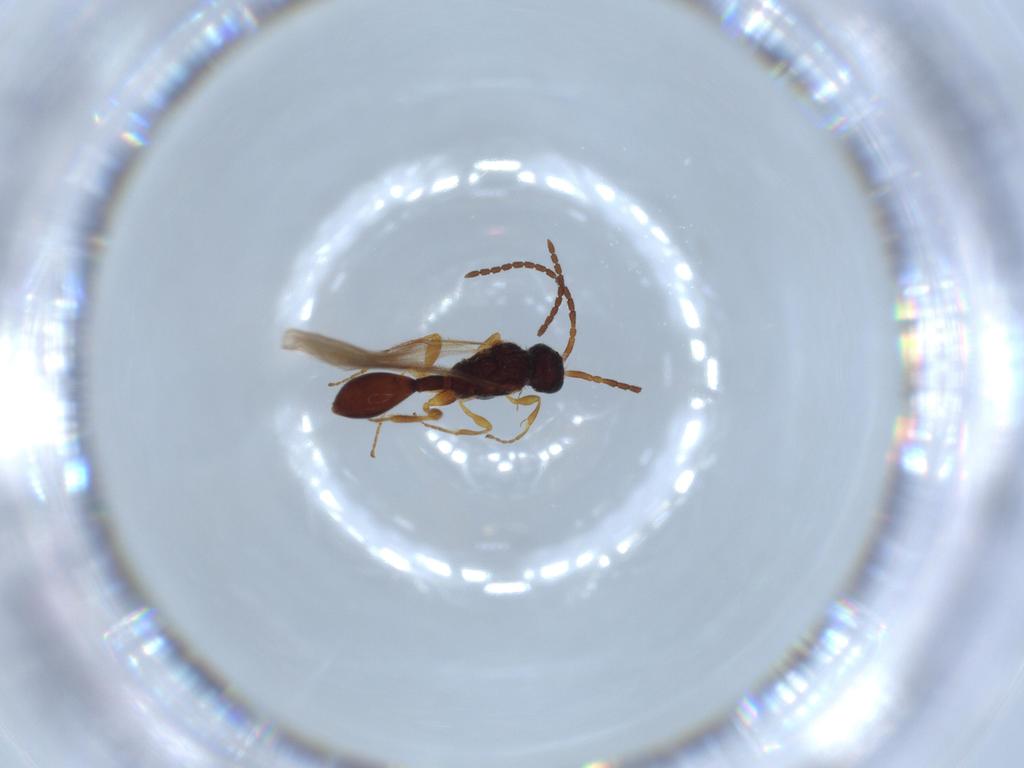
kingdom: Animalia
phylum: Arthropoda
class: Insecta
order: Hymenoptera
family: Scelionidae
